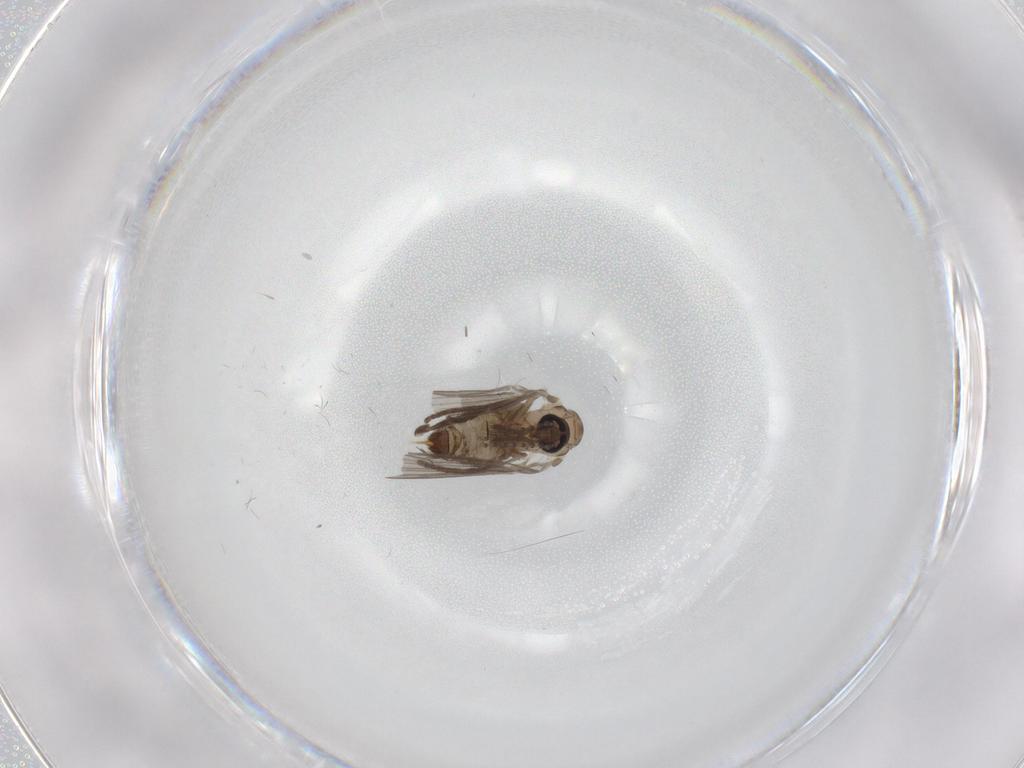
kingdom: Animalia
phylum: Arthropoda
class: Insecta
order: Diptera
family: Psychodidae
